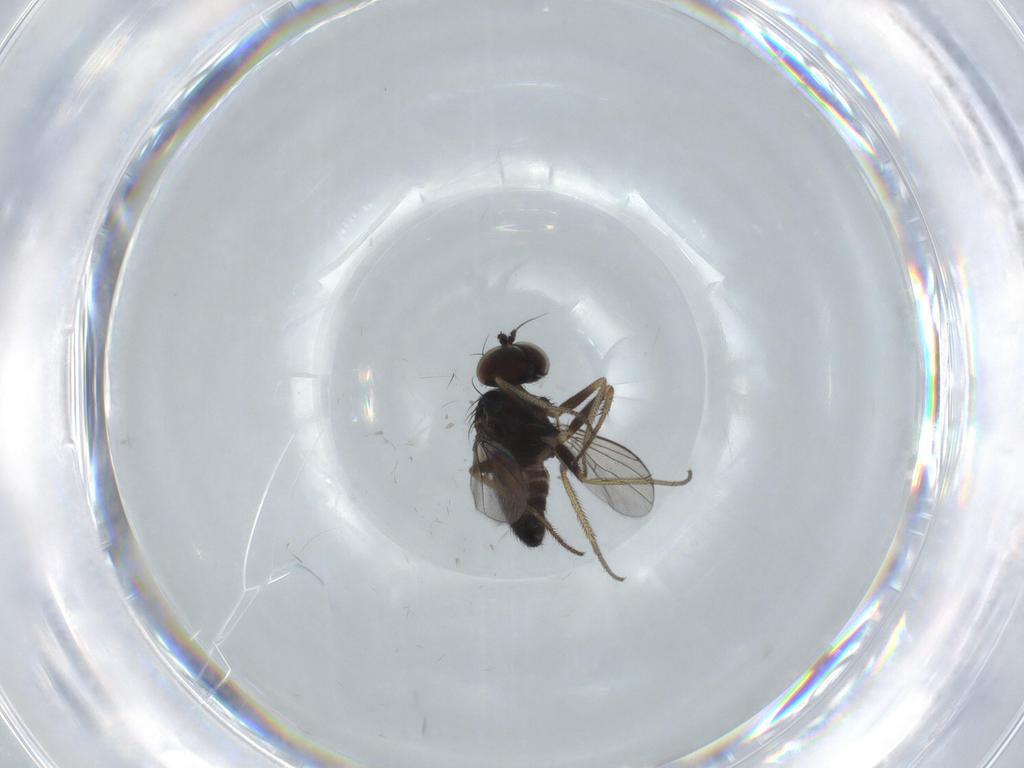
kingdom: Animalia
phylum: Arthropoda
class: Insecta
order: Diptera
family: Dolichopodidae
